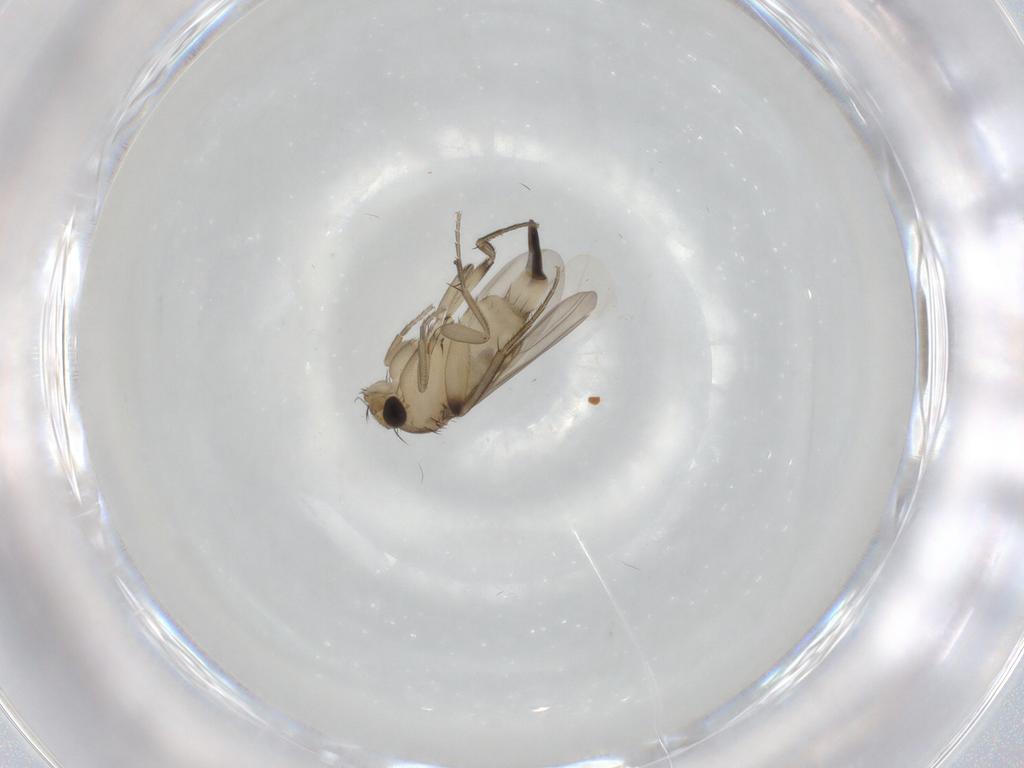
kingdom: Animalia
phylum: Arthropoda
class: Insecta
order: Diptera
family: Phoridae
